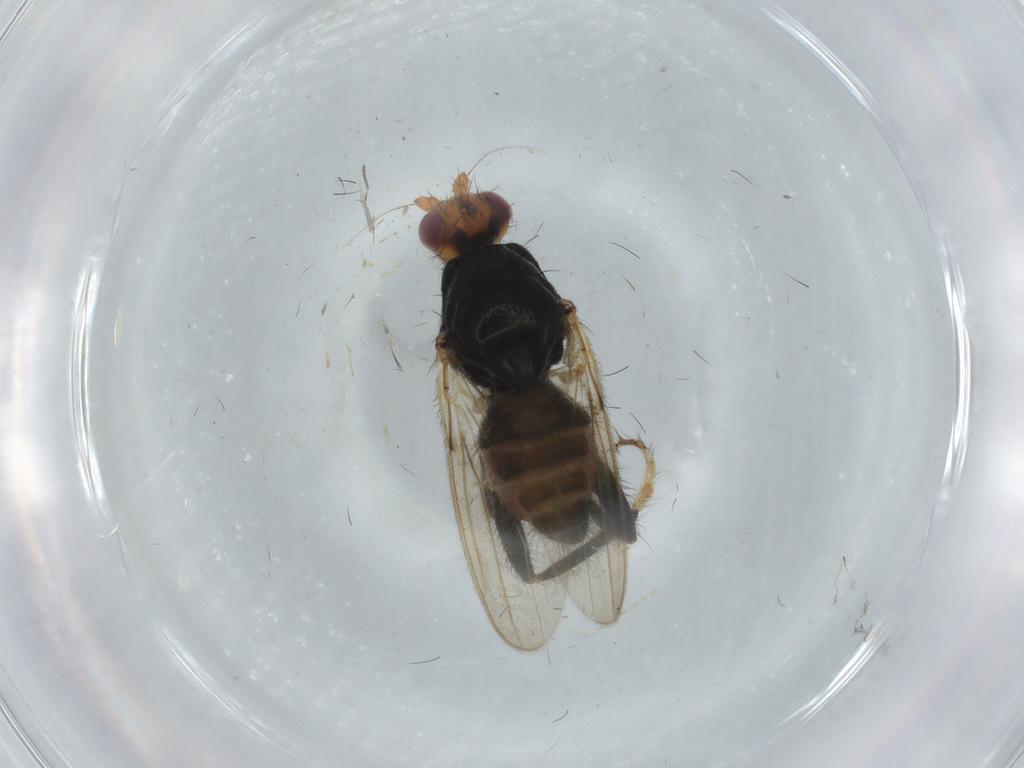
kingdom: Animalia
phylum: Arthropoda
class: Insecta
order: Diptera
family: Sphaeroceridae
